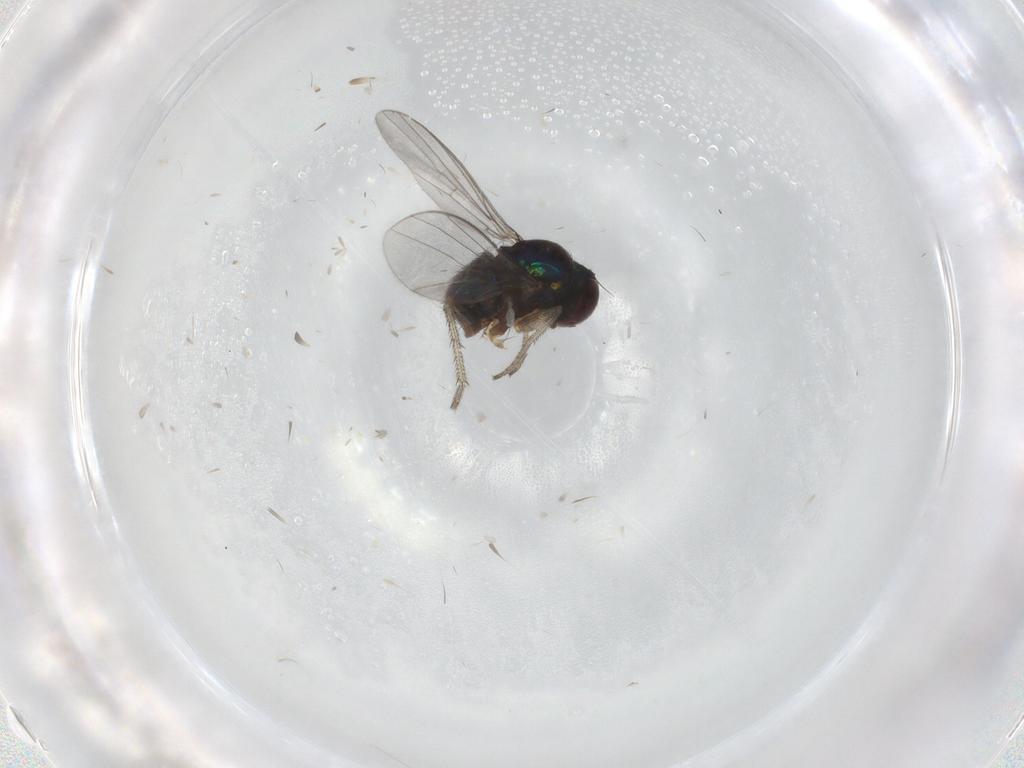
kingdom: Animalia
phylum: Arthropoda
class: Insecta
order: Diptera
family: Dolichopodidae
